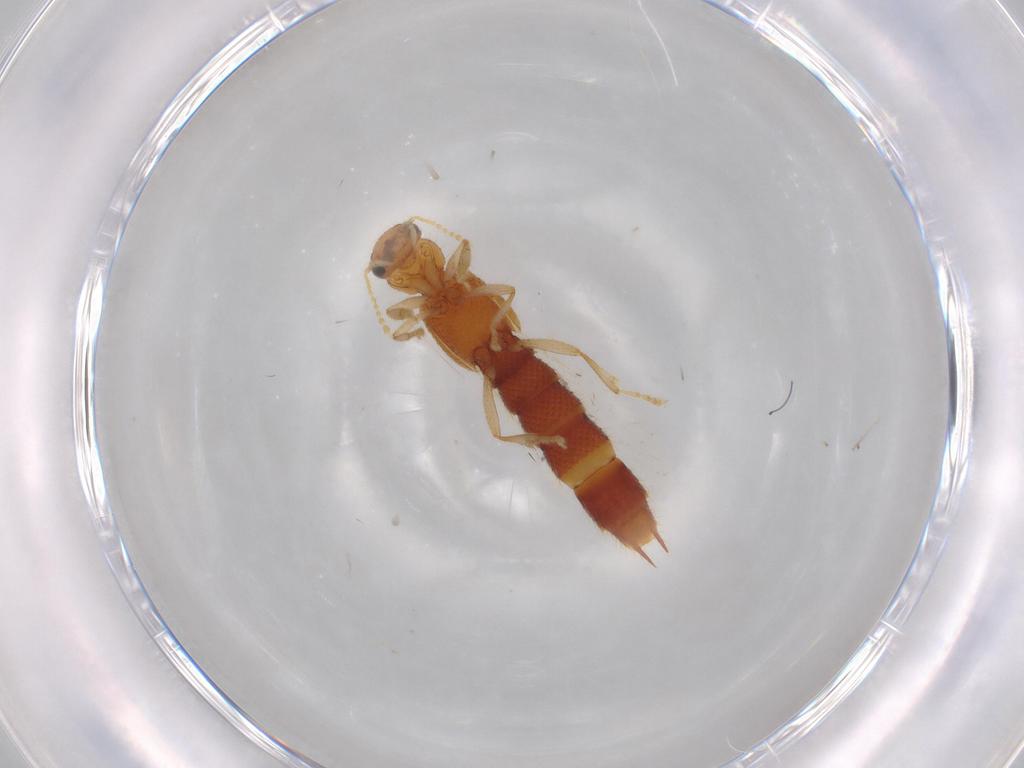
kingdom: Animalia
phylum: Arthropoda
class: Insecta
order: Coleoptera
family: Staphylinidae
